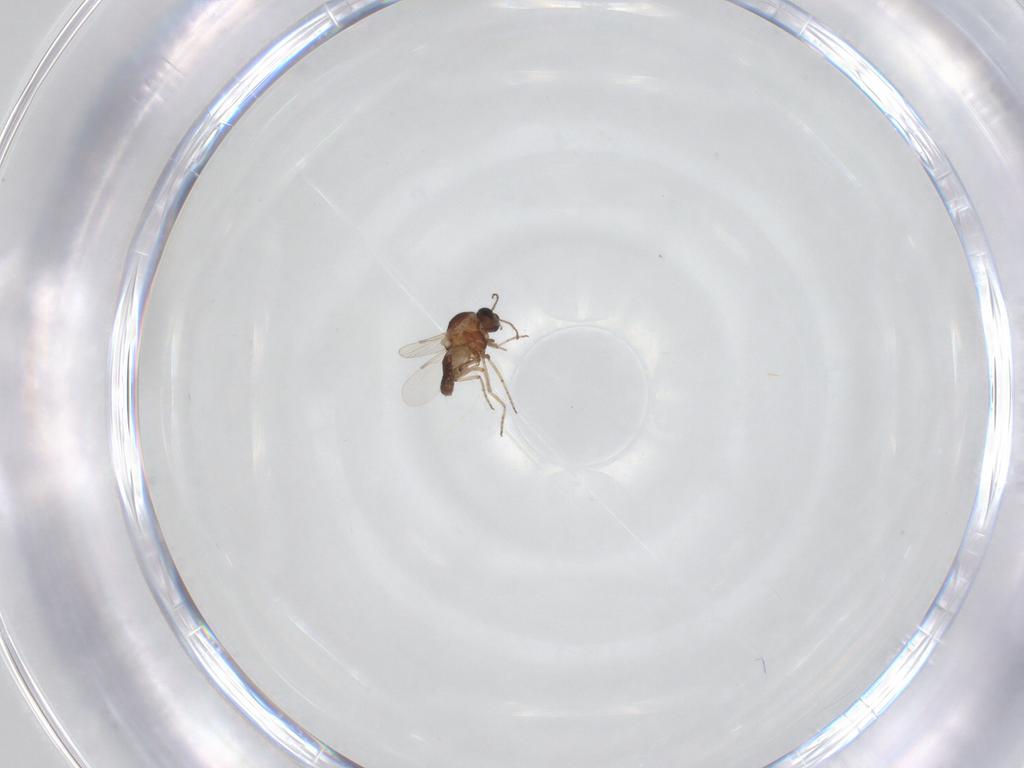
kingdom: Animalia
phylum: Arthropoda
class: Insecta
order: Diptera
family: Ceratopogonidae
